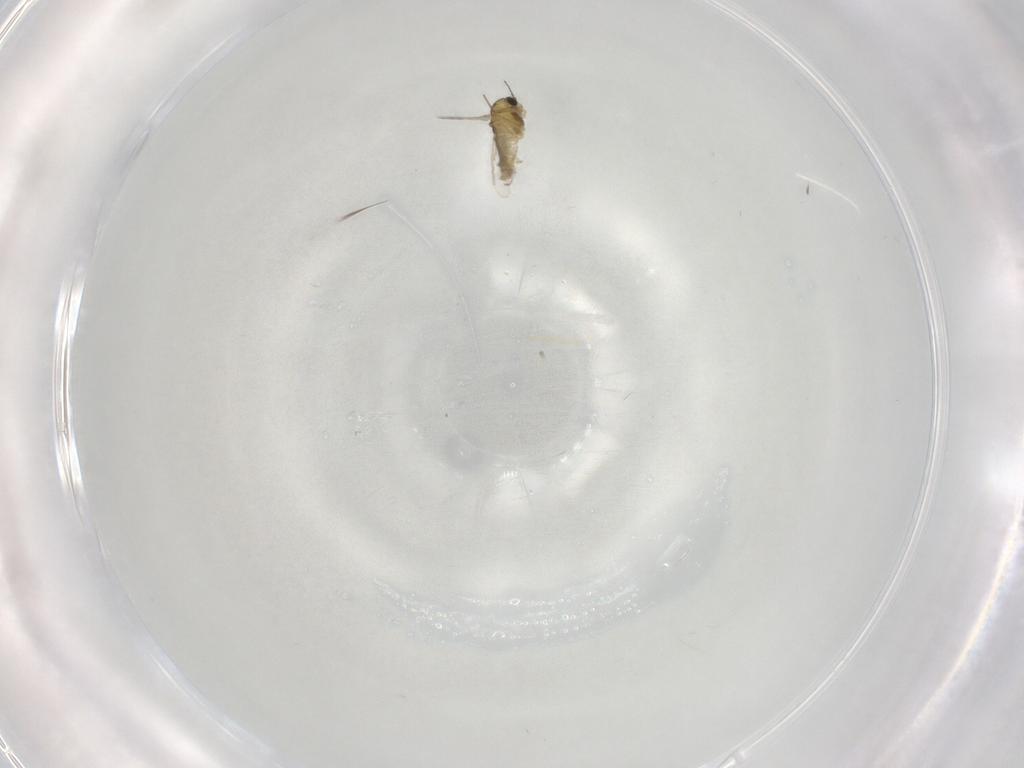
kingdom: Animalia
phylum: Arthropoda
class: Insecta
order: Diptera
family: Chironomidae
